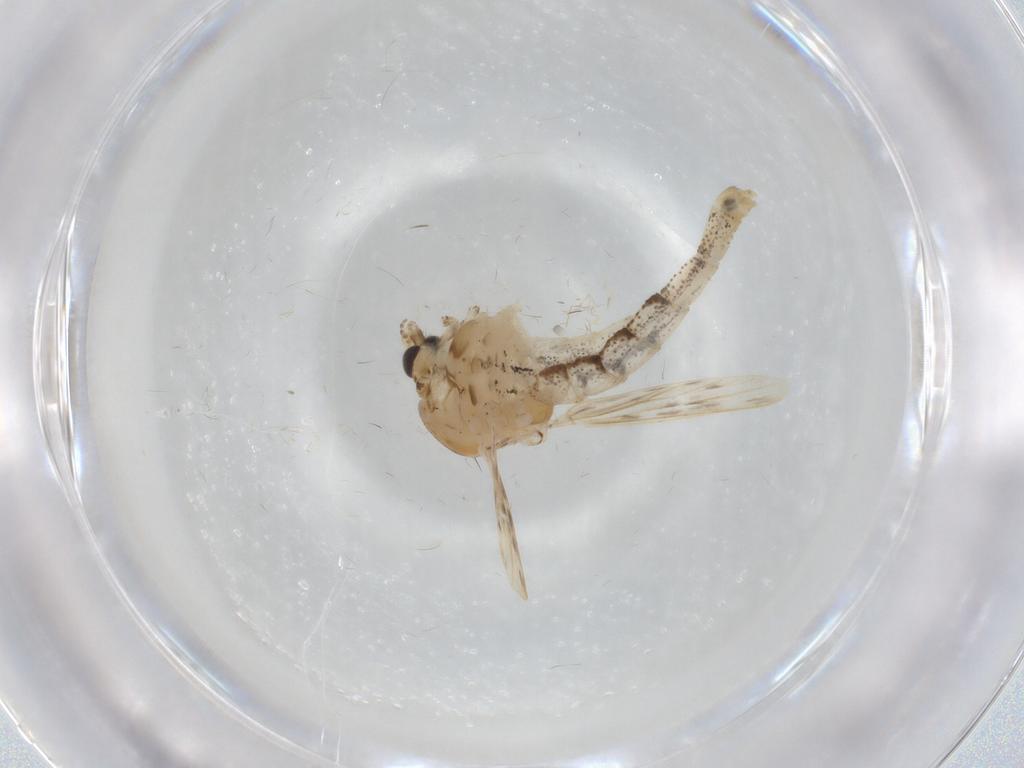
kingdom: Animalia
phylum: Arthropoda
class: Insecta
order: Diptera
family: Chaoboridae
